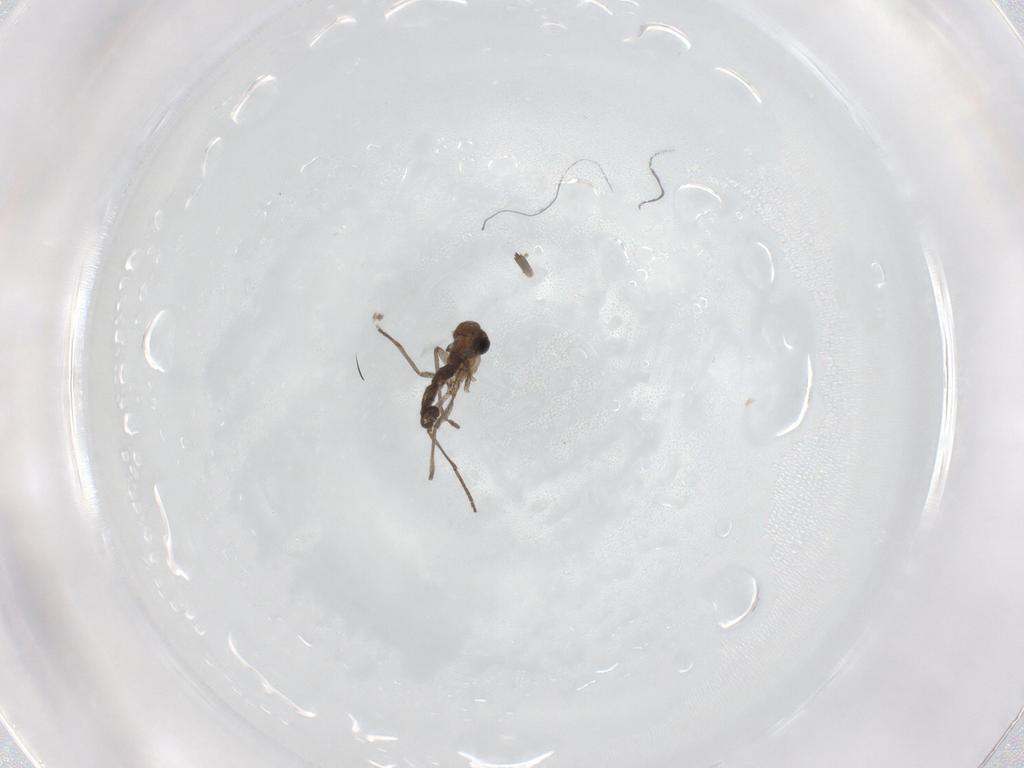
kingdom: Animalia
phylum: Arthropoda
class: Insecta
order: Diptera
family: Sciaridae
